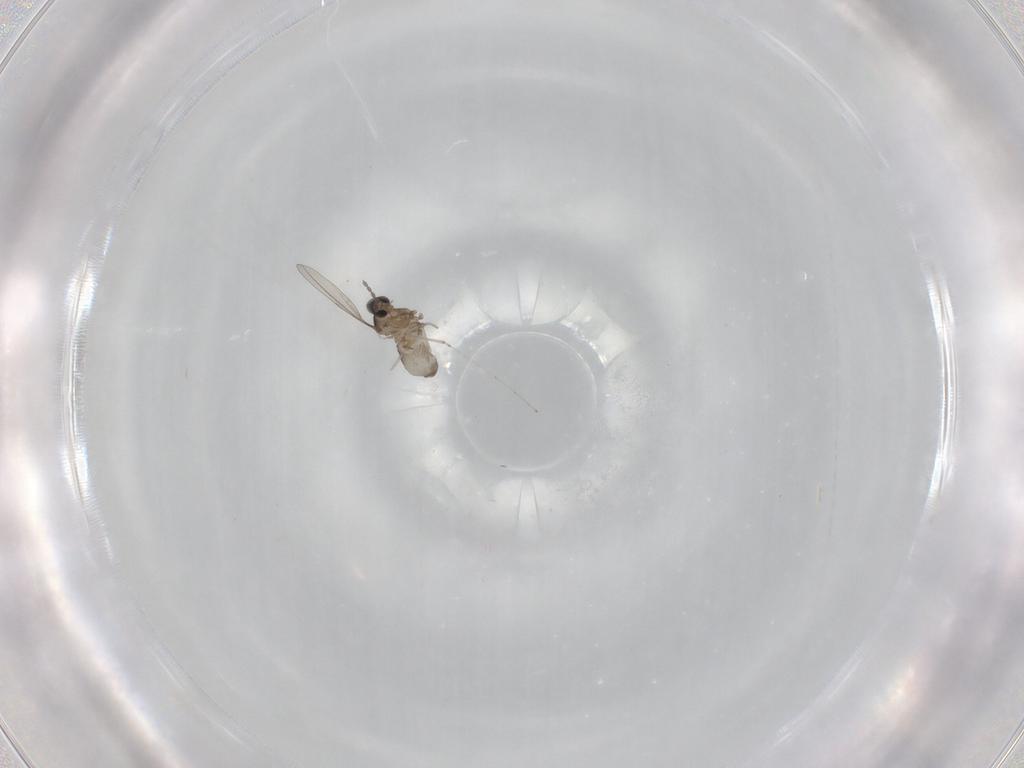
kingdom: Animalia
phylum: Arthropoda
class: Insecta
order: Diptera
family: Cecidomyiidae
